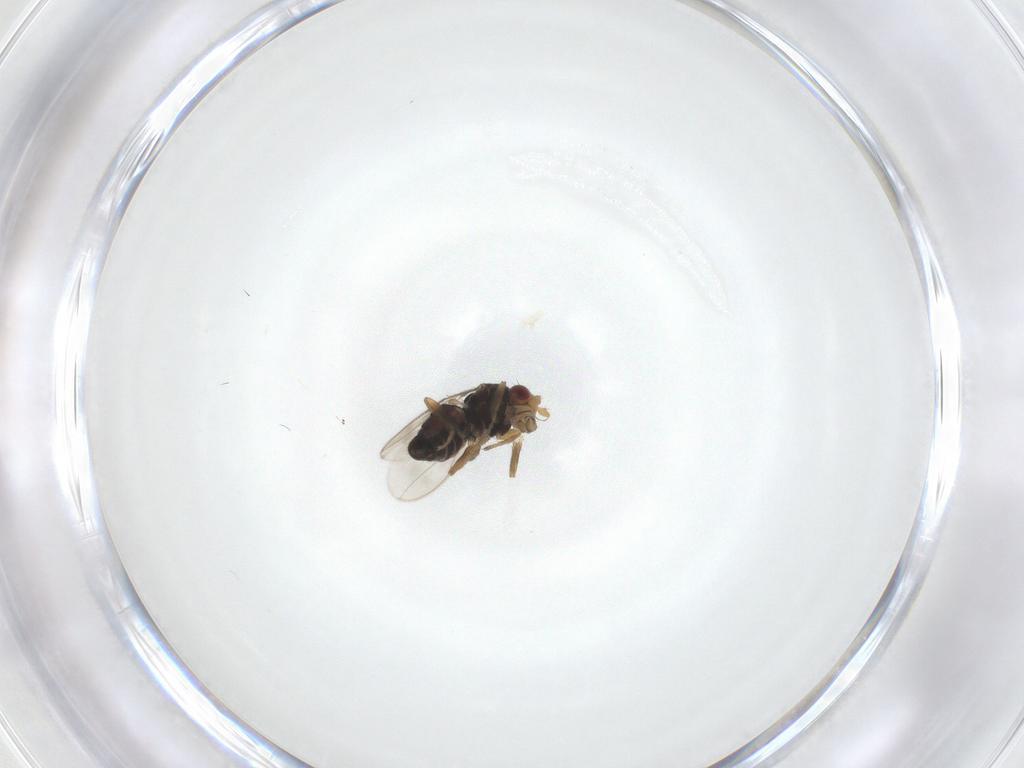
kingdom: Animalia
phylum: Arthropoda
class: Insecta
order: Diptera
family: Sphaeroceridae
